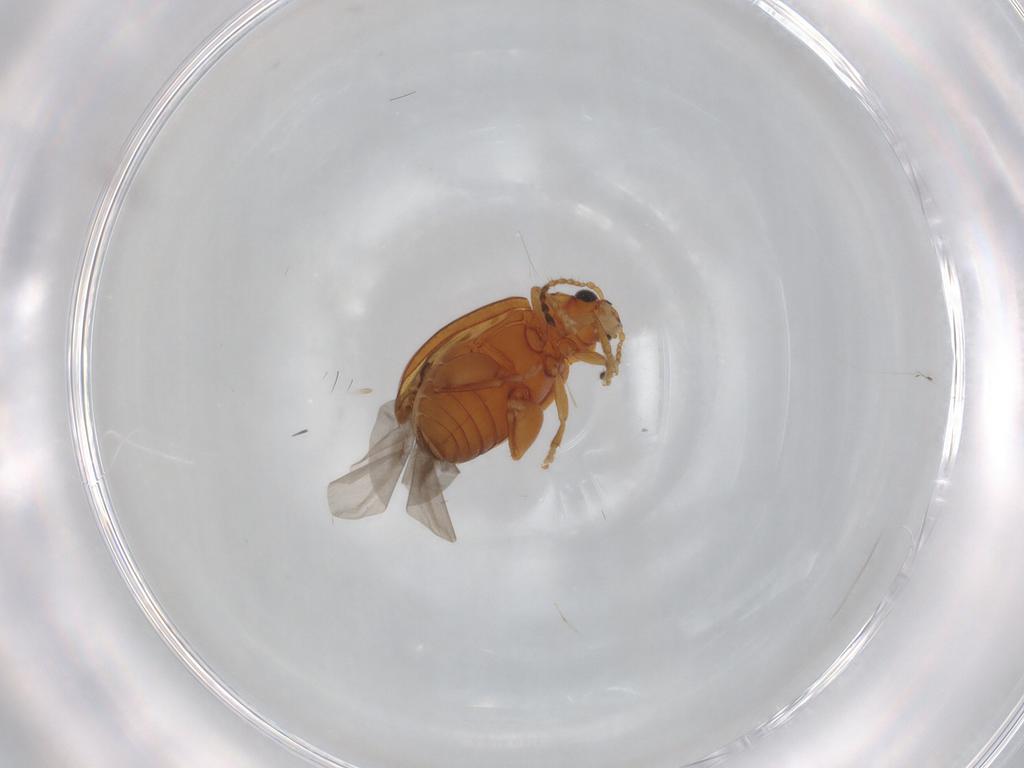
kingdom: Animalia
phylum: Arthropoda
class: Insecta
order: Coleoptera
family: Chrysomelidae
